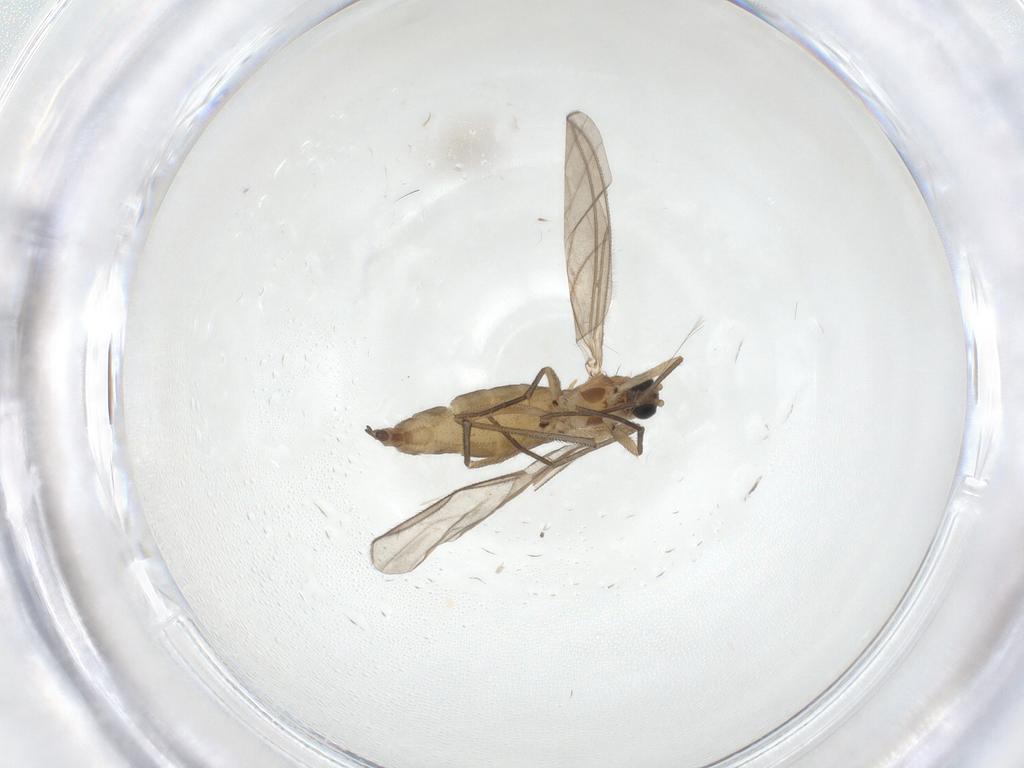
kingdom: Animalia
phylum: Arthropoda
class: Insecta
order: Diptera
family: Sciaridae
